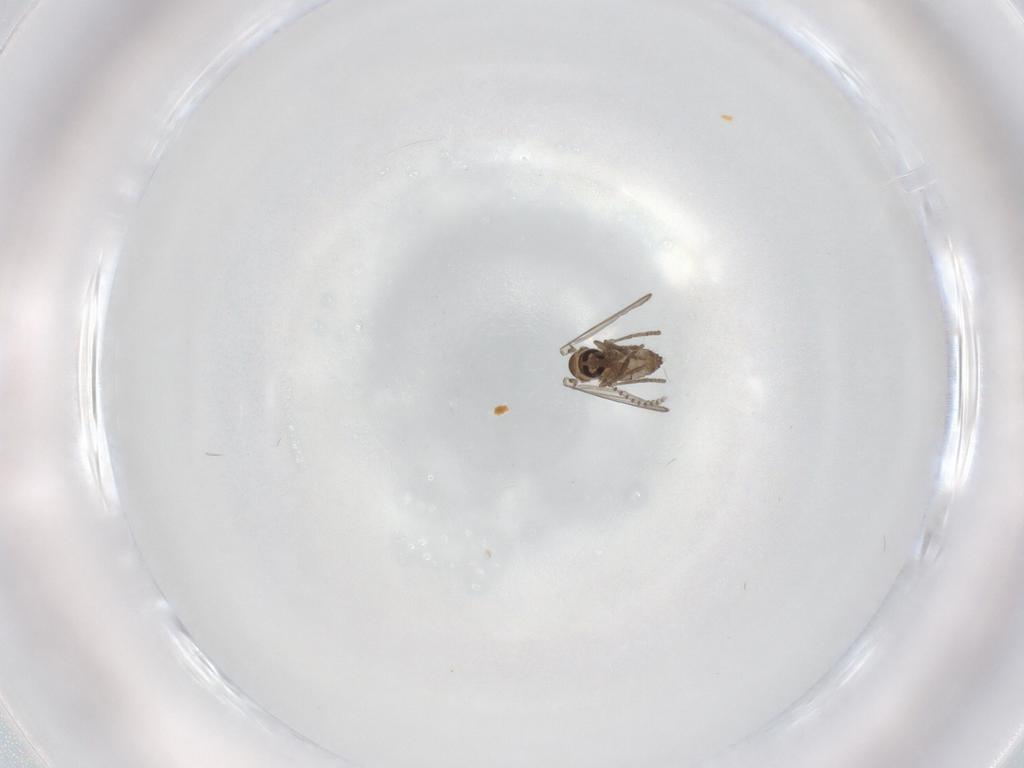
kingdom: Animalia
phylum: Arthropoda
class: Insecta
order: Diptera
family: Psychodidae
